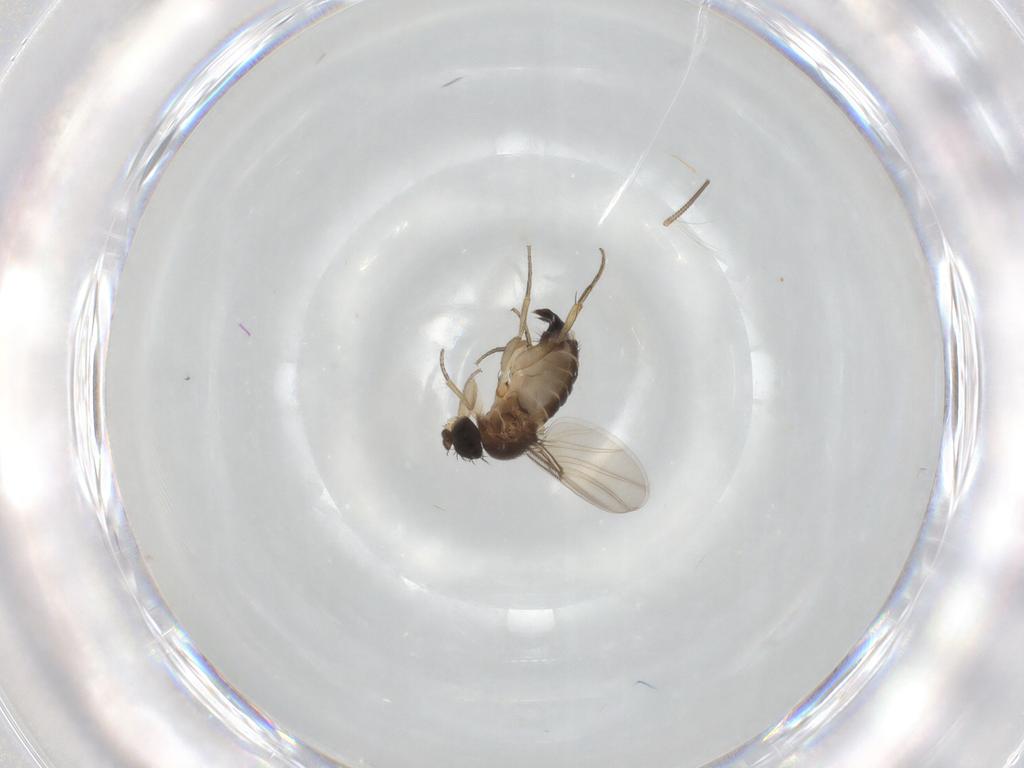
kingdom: Animalia
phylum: Arthropoda
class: Insecta
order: Diptera
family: Phoridae
